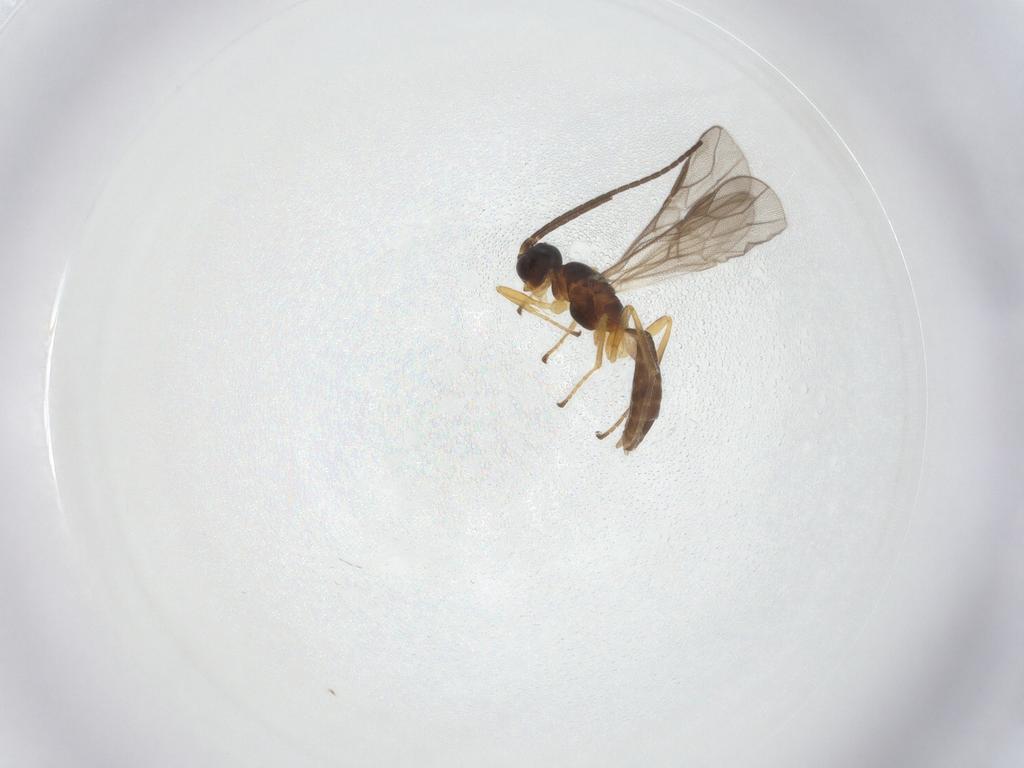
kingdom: Animalia
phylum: Arthropoda
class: Insecta
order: Hymenoptera
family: Braconidae
